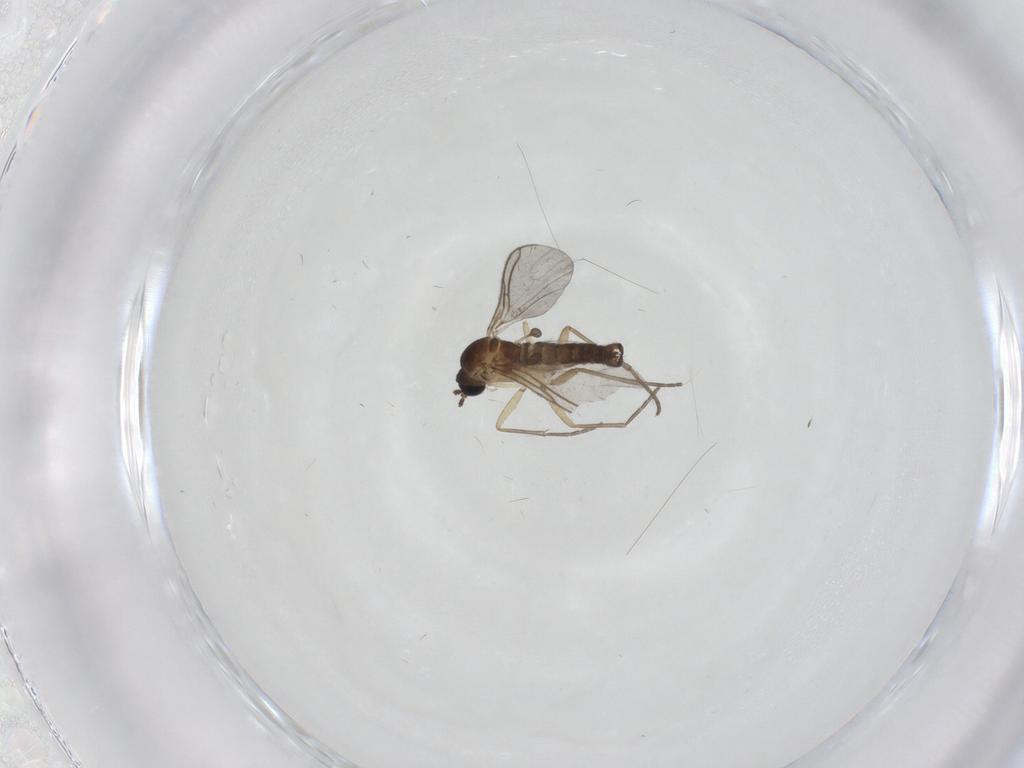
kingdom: Animalia
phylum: Arthropoda
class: Insecta
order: Diptera
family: Sciaridae
